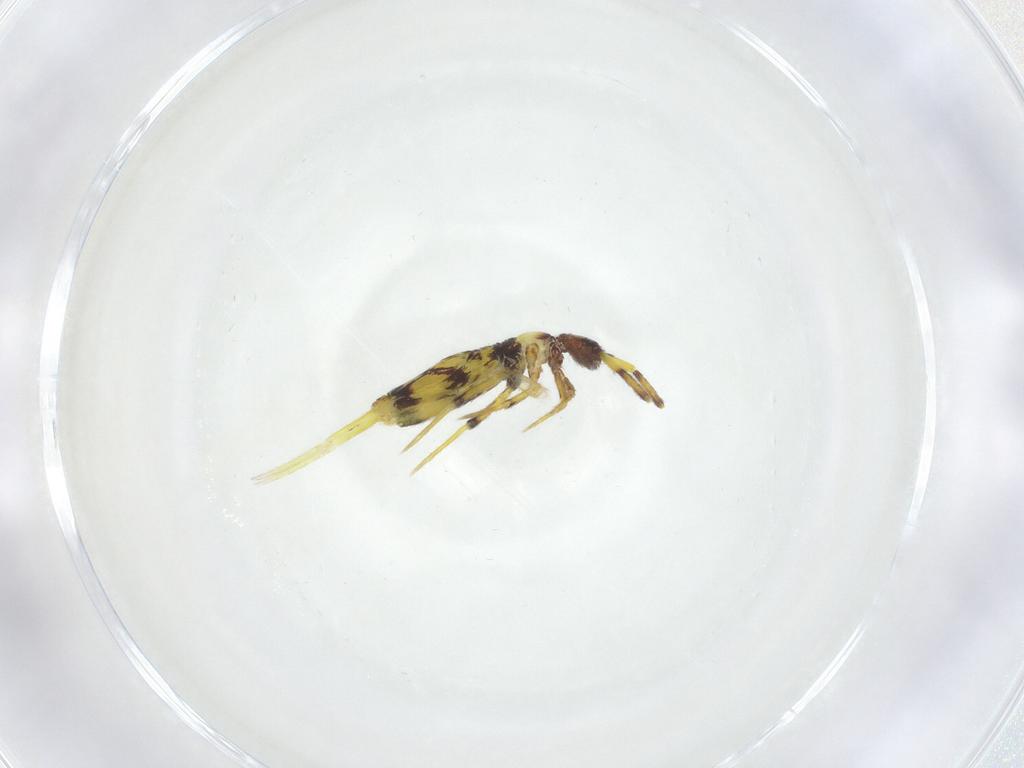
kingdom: Animalia
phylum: Arthropoda
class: Collembola
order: Entomobryomorpha
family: Entomobryidae
